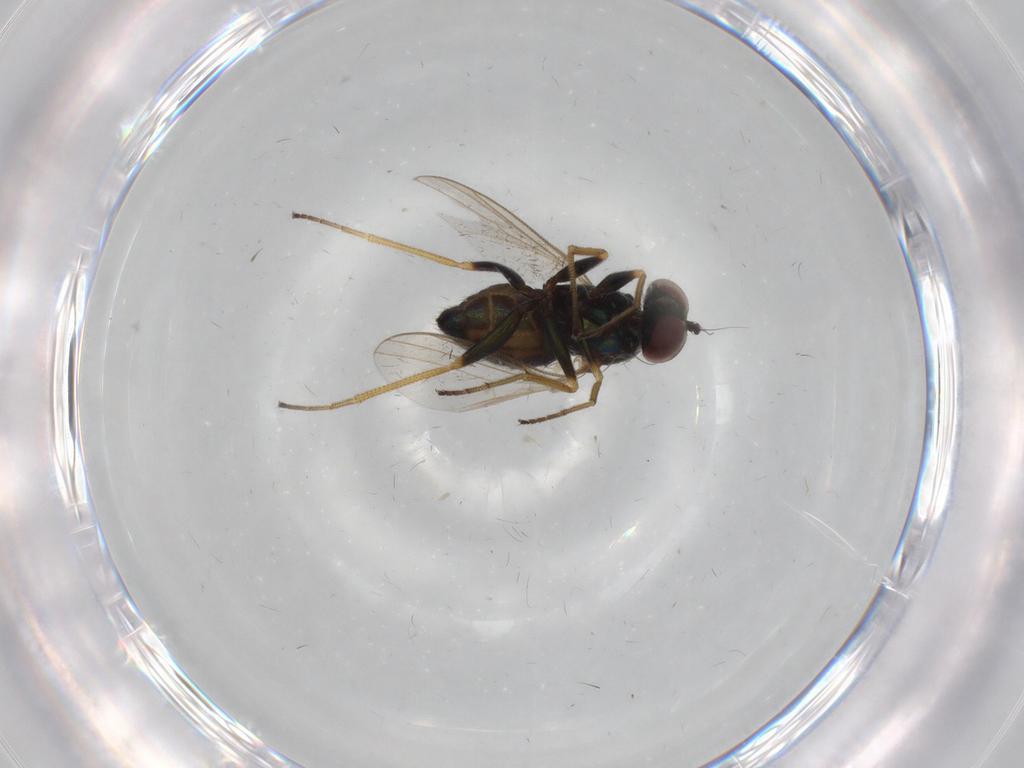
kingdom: Animalia
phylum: Arthropoda
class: Insecta
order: Diptera
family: Dolichopodidae
